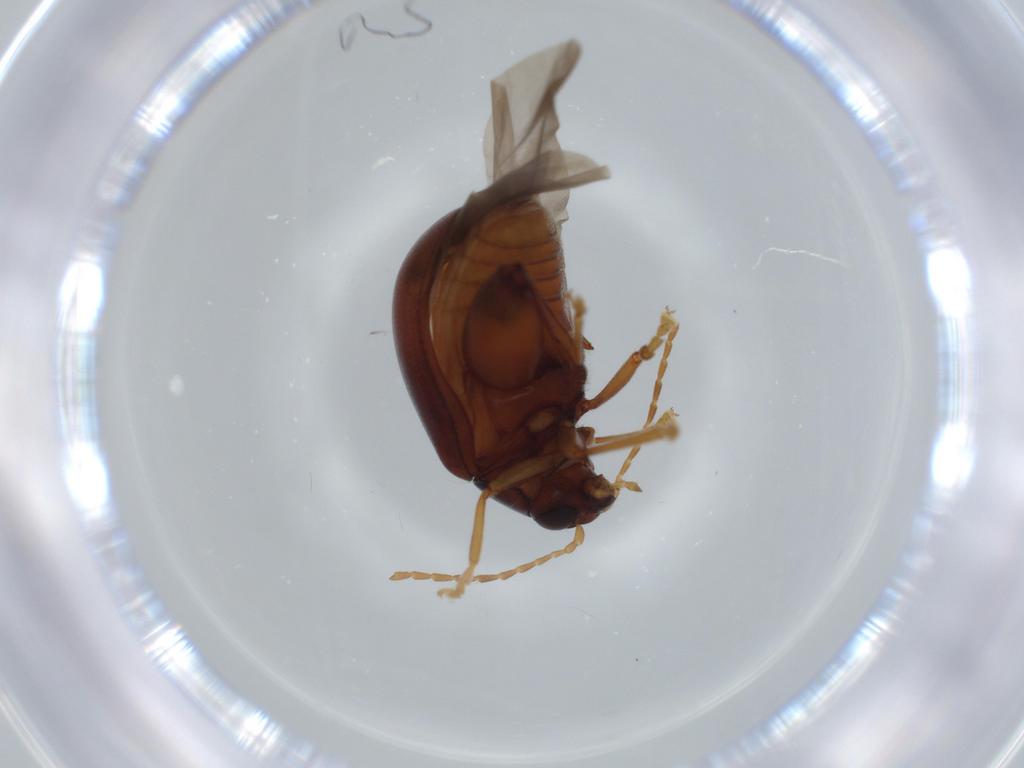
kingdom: Animalia
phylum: Arthropoda
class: Insecta
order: Coleoptera
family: Chrysomelidae
